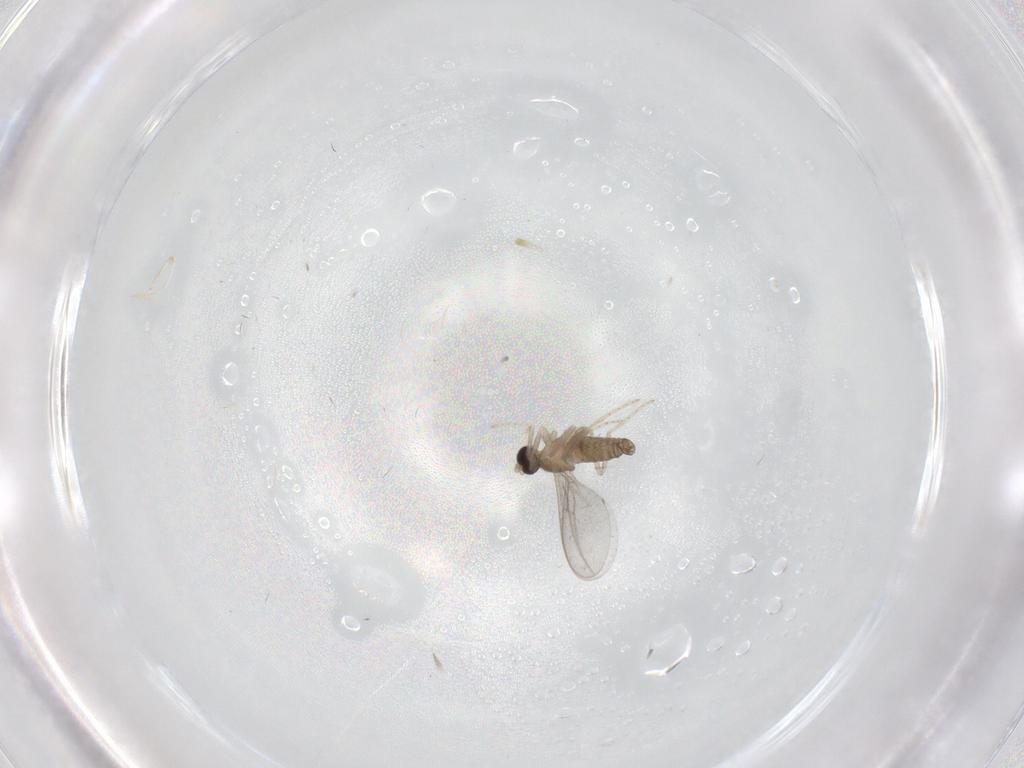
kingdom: Animalia
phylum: Arthropoda
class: Insecta
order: Diptera
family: Cecidomyiidae
